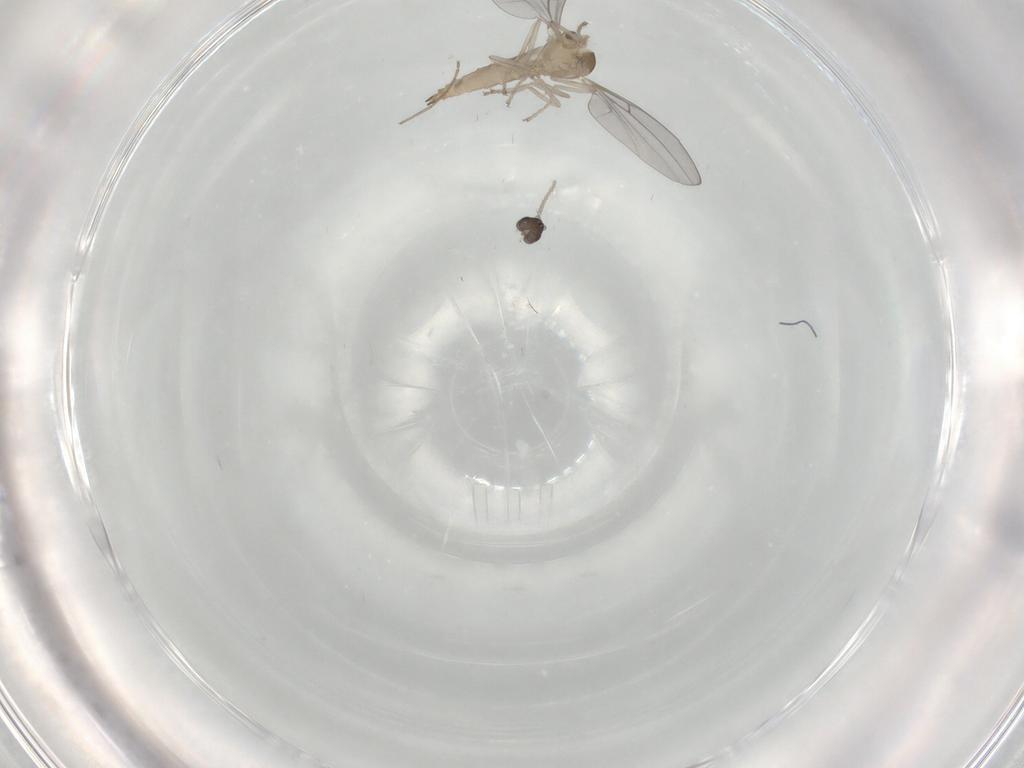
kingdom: Animalia
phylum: Arthropoda
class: Insecta
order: Diptera
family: Cecidomyiidae
